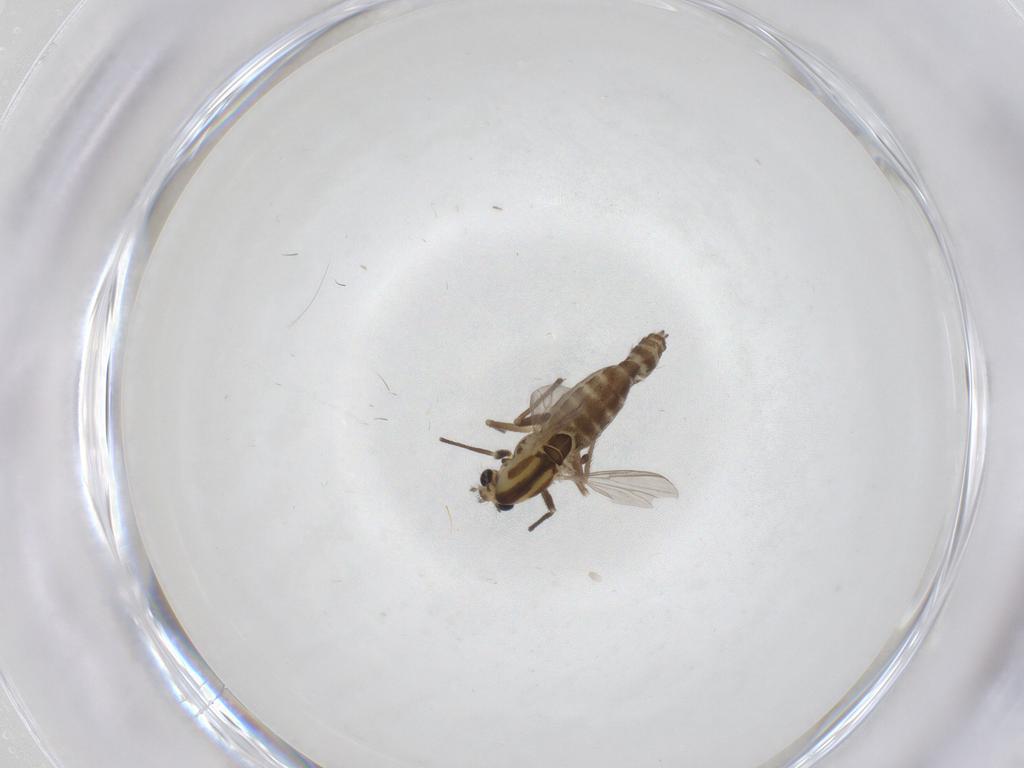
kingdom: Animalia
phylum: Arthropoda
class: Insecta
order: Diptera
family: Chironomidae
